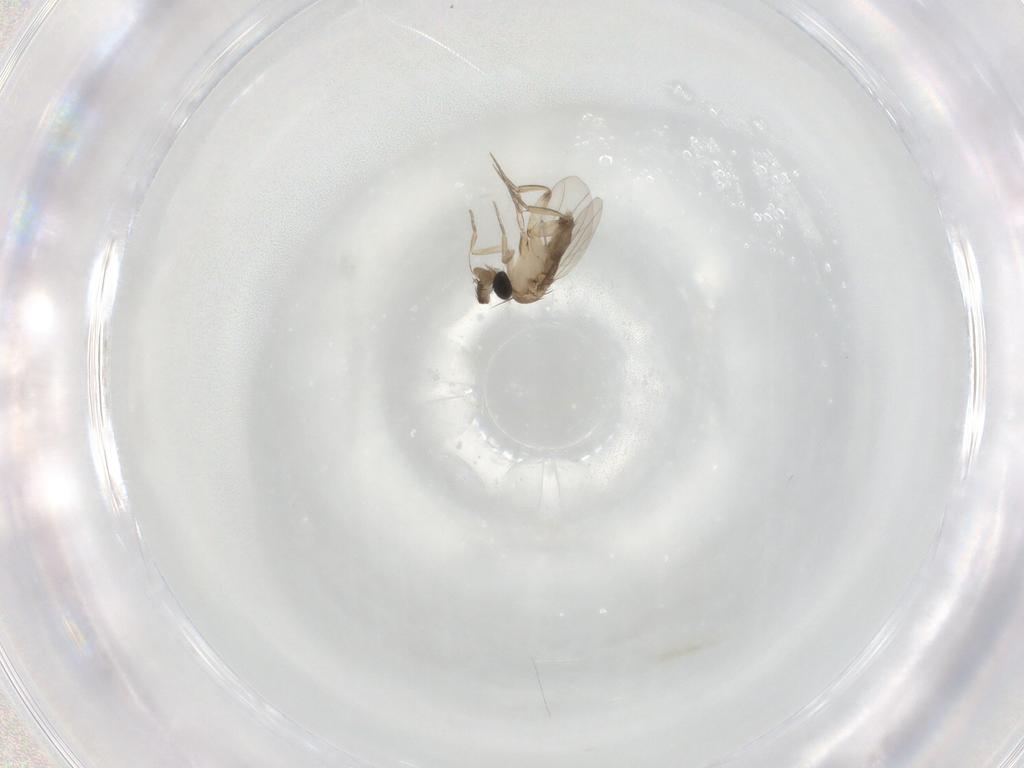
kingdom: Animalia
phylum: Arthropoda
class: Insecta
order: Diptera
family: Phoridae
